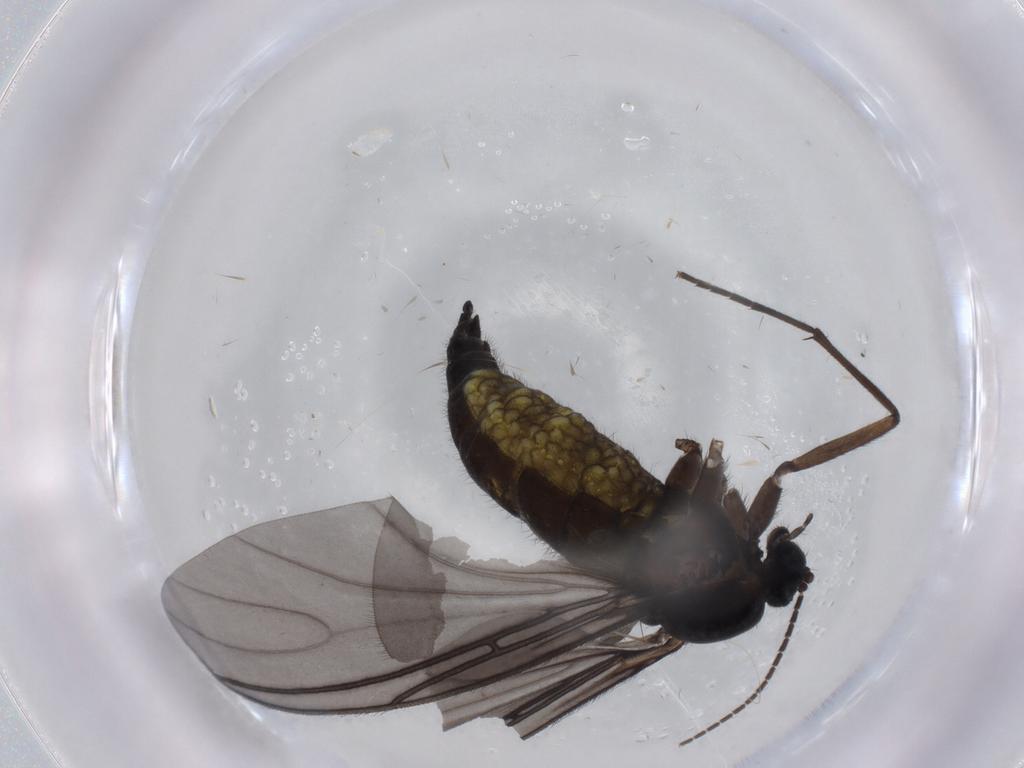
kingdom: Animalia
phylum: Arthropoda
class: Insecta
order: Diptera
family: Sciaridae
